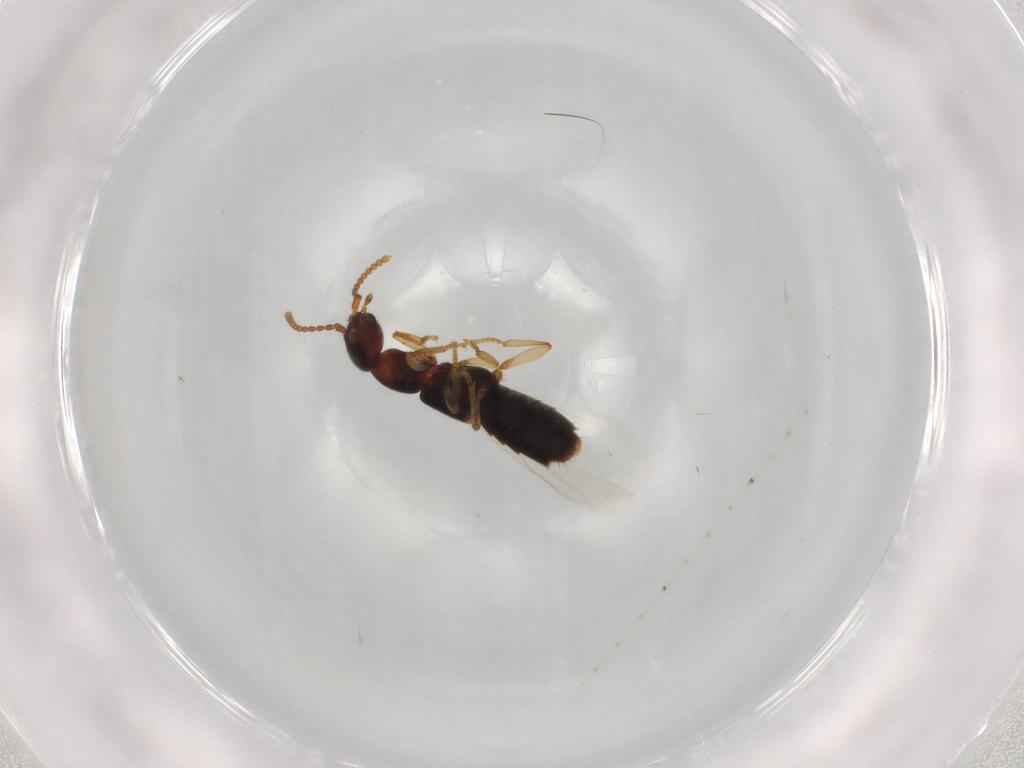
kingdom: Animalia
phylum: Arthropoda
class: Insecta
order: Coleoptera
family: Staphylinidae
